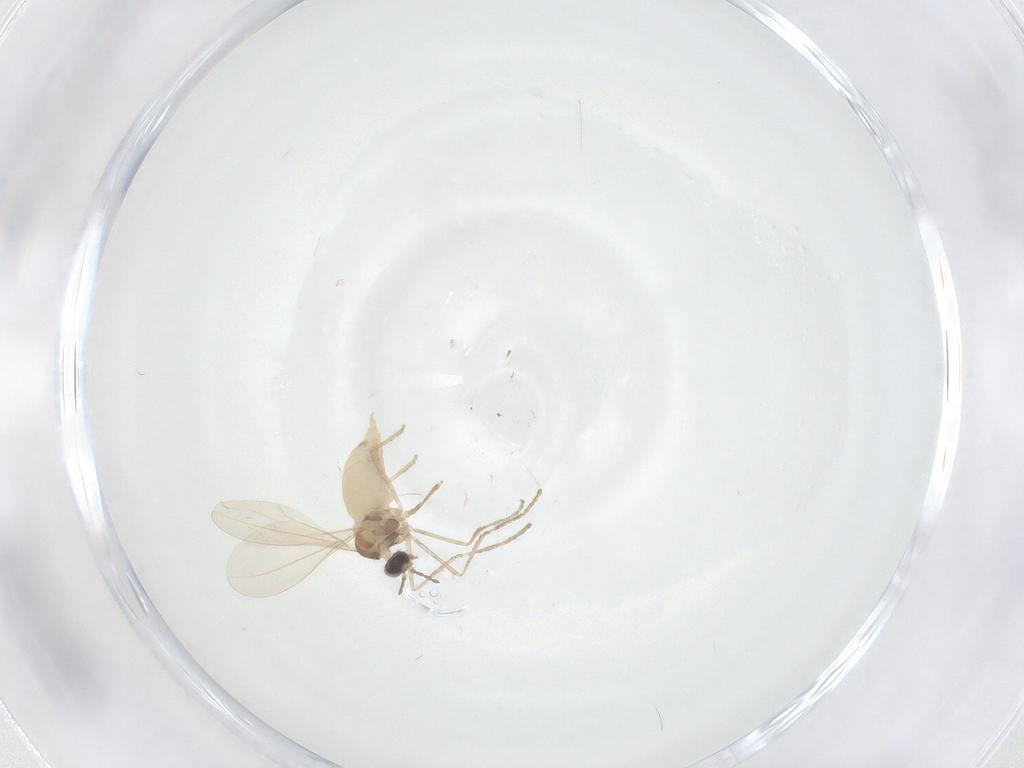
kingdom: Animalia
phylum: Arthropoda
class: Insecta
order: Diptera
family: Cecidomyiidae
